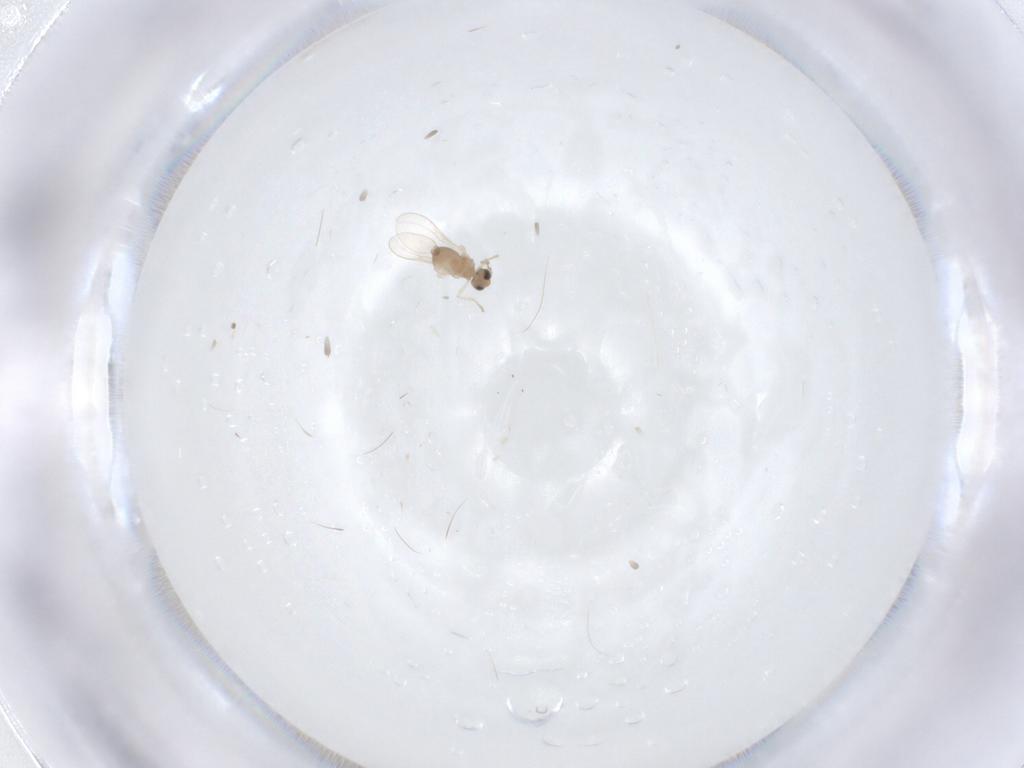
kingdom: Animalia
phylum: Arthropoda
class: Insecta
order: Diptera
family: Cecidomyiidae
